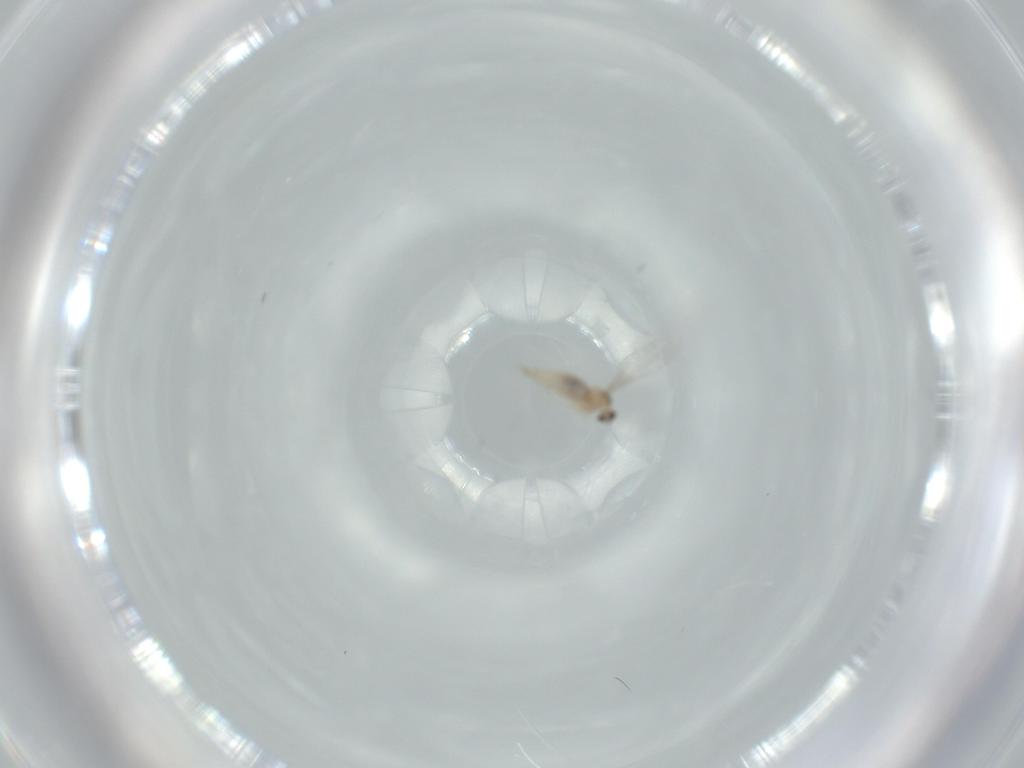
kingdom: Animalia
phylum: Arthropoda
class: Insecta
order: Diptera
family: Cecidomyiidae
